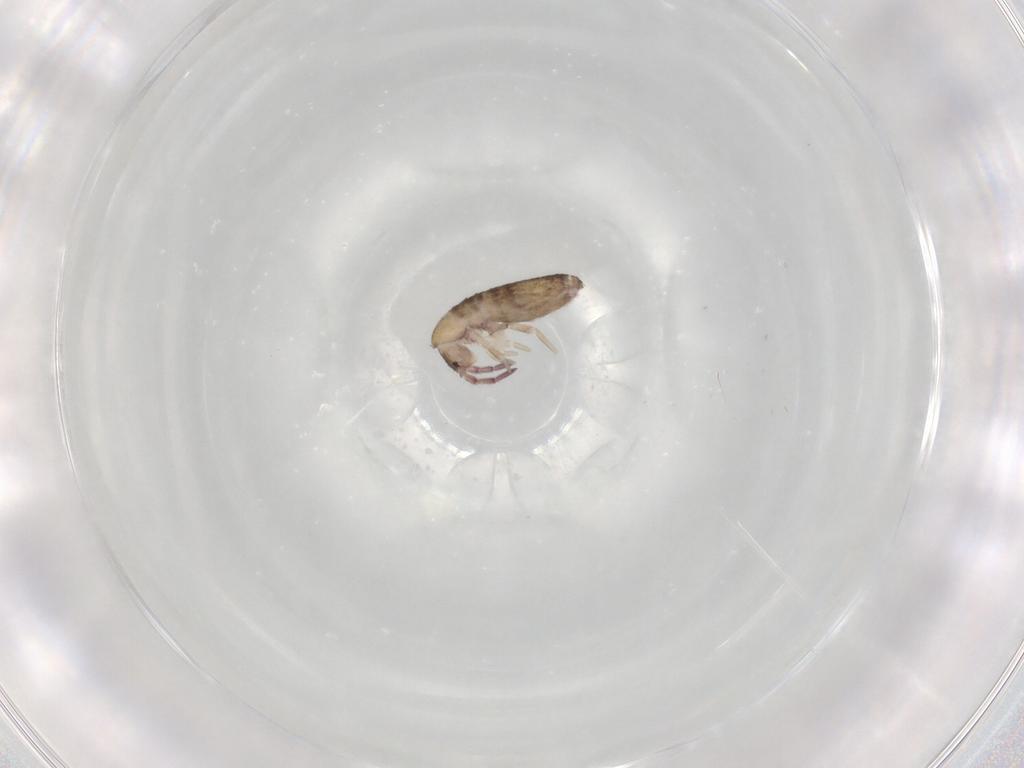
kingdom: Animalia
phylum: Arthropoda
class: Collembola
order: Entomobryomorpha
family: Entomobryidae
